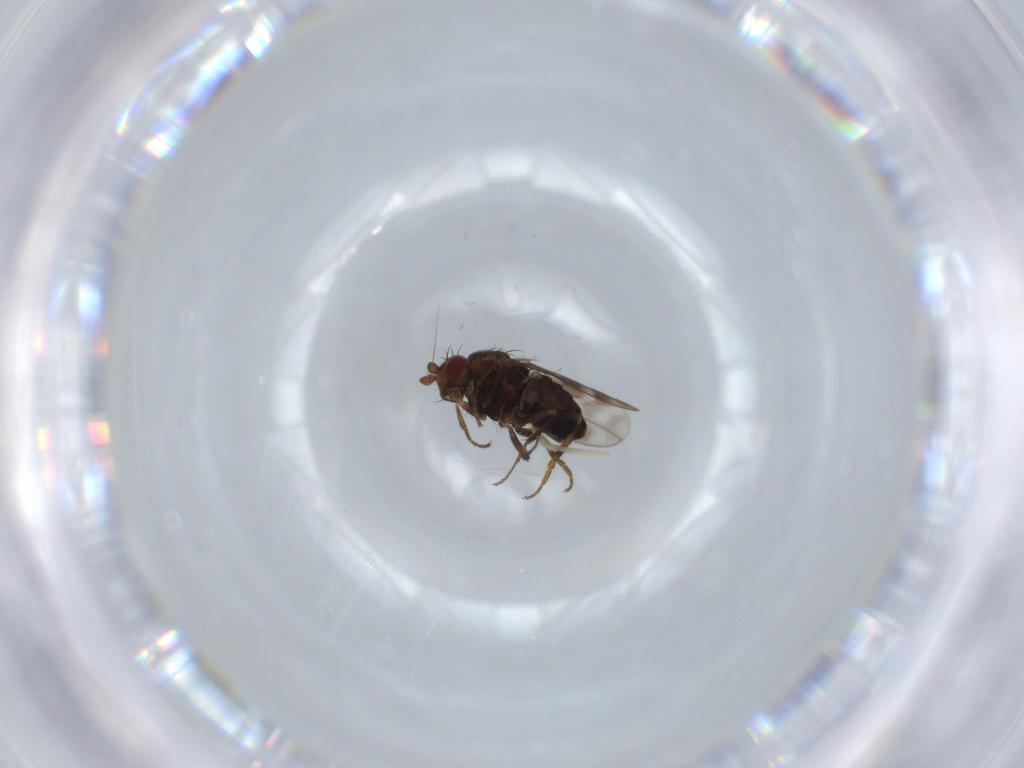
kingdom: Animalia
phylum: Arthropoda
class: Insecta
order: Diptera
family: Sphaeroceridae
